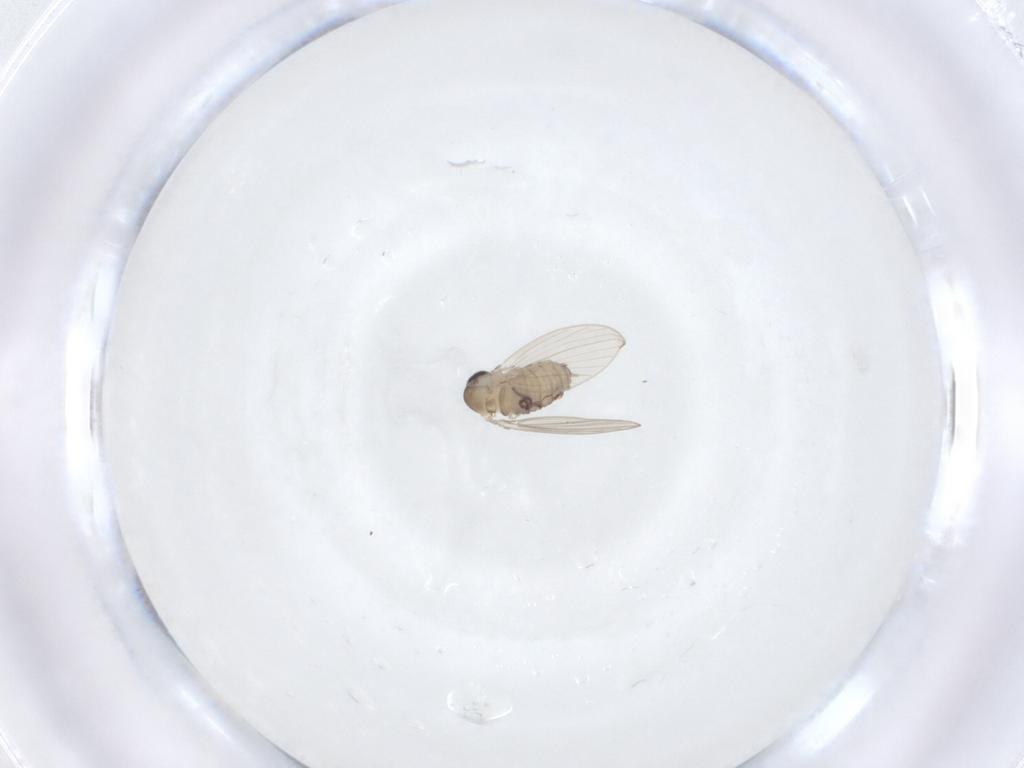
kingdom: Animalia
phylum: Arthropoda
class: Insecta
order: Diptera
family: Psychodidae
